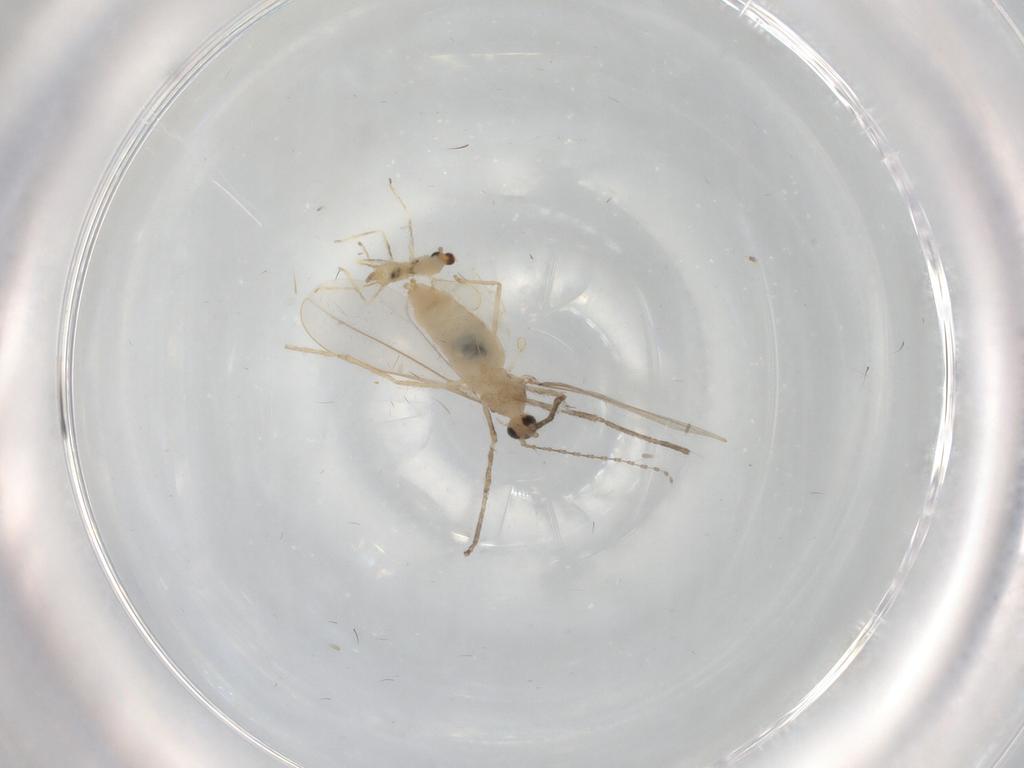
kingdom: Animalia
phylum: Arthropoda
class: Insecta
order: Diptera
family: Cecidomyiidae
